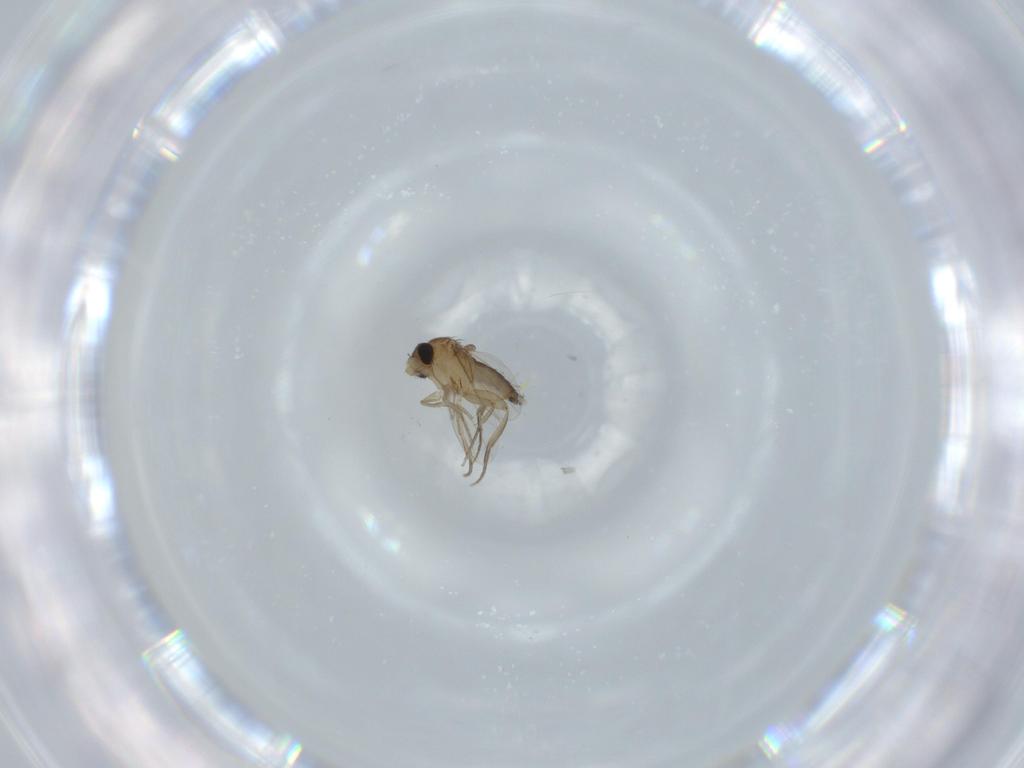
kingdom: Animalia
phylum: Arthropoda
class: Insecta
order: Diptera
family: Phoridae
